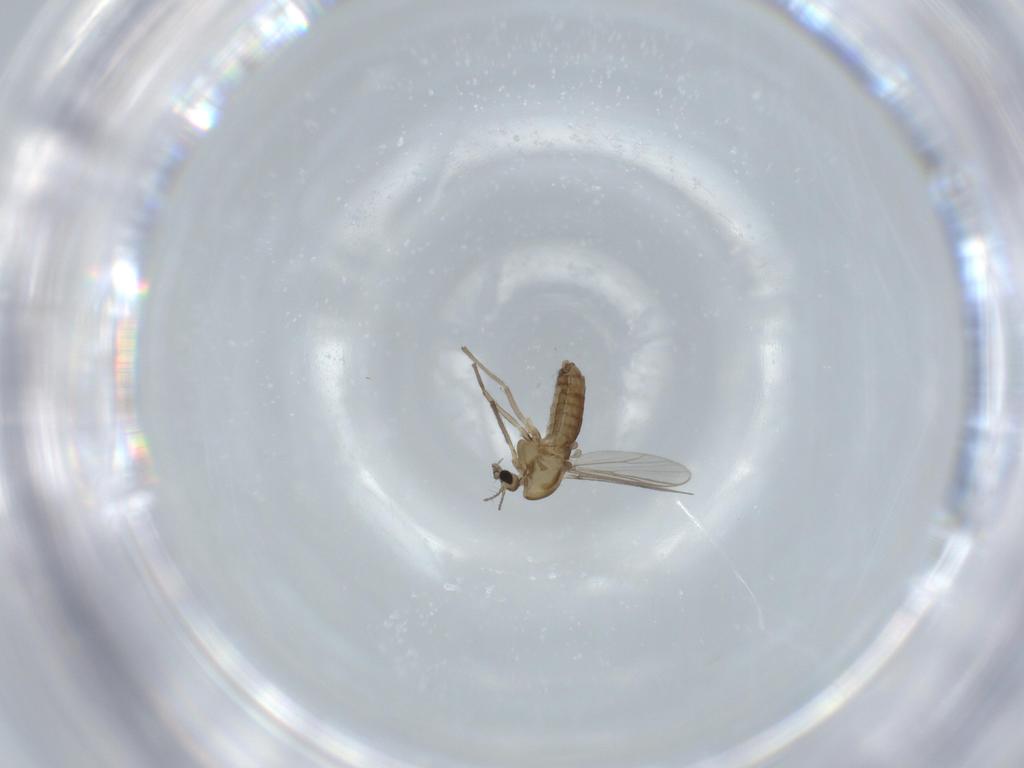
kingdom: Animalia
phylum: Arthropoda
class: Insecta
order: Diptera
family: Chironomidae
